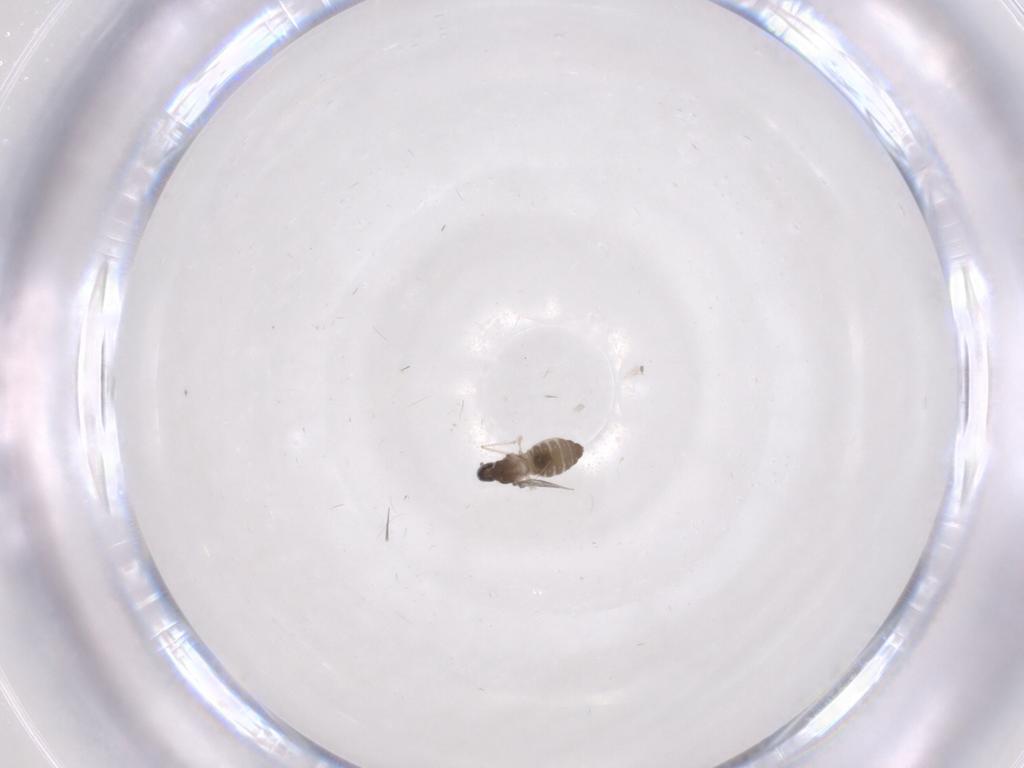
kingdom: Animalia
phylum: Arthropoda
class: Insecta
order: Diptera
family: Cecidomyiidae
